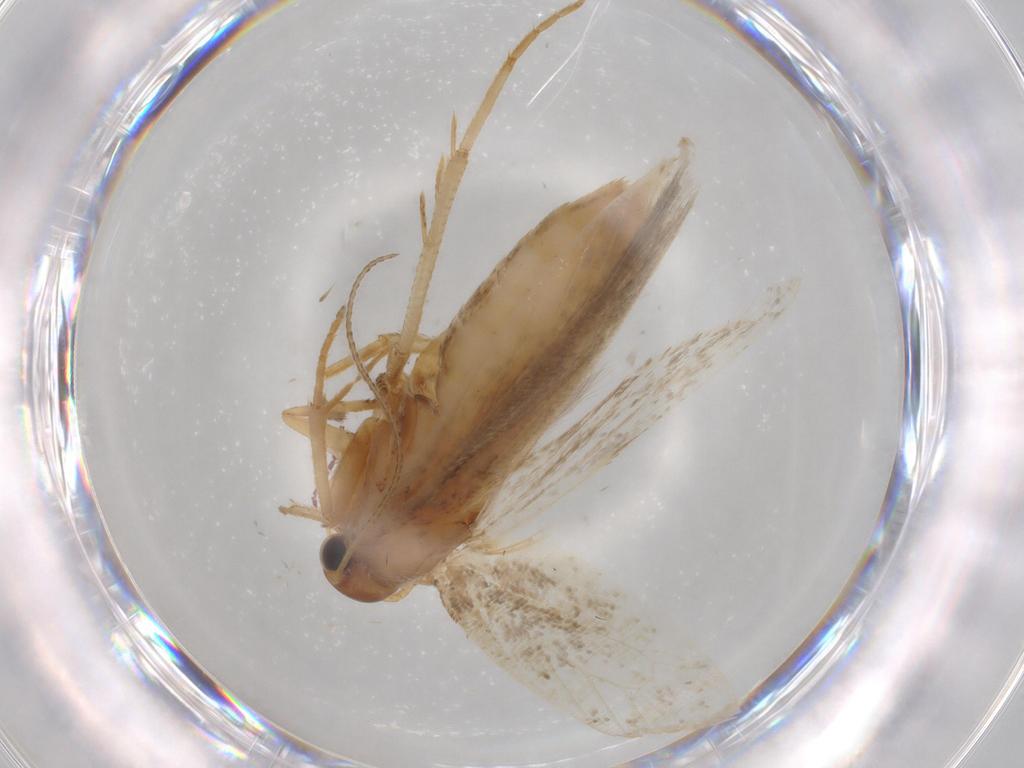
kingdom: Animalia
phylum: Arthropoda
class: Insecta
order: Lepidoptera
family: Gelechiidae
